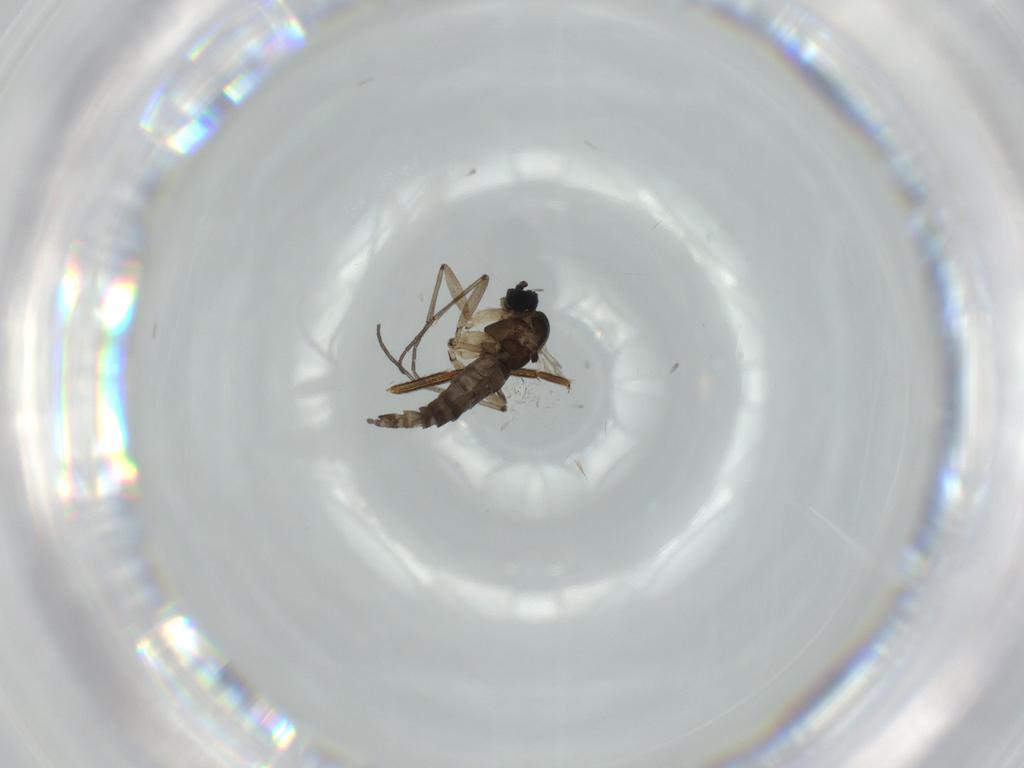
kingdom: Animalia
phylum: Arthropoda
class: Insecta
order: Diptera
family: Sciaridae
